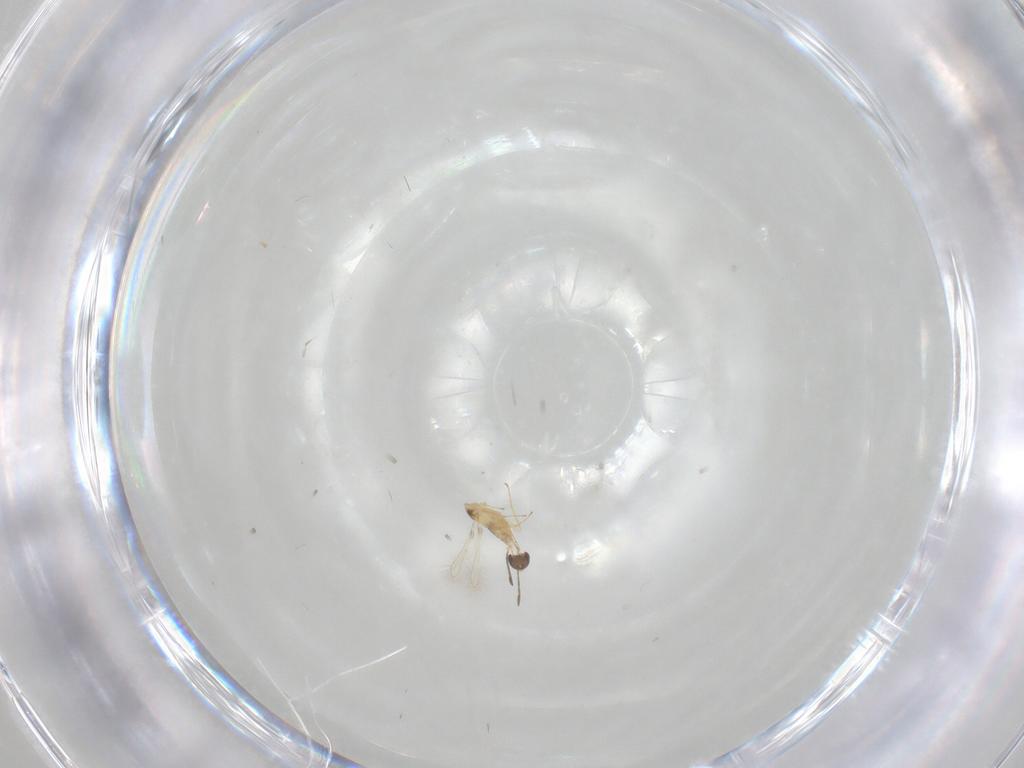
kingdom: Animalia
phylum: Arthropoda
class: Insecta
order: Hymenoptera
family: Mymaridae
